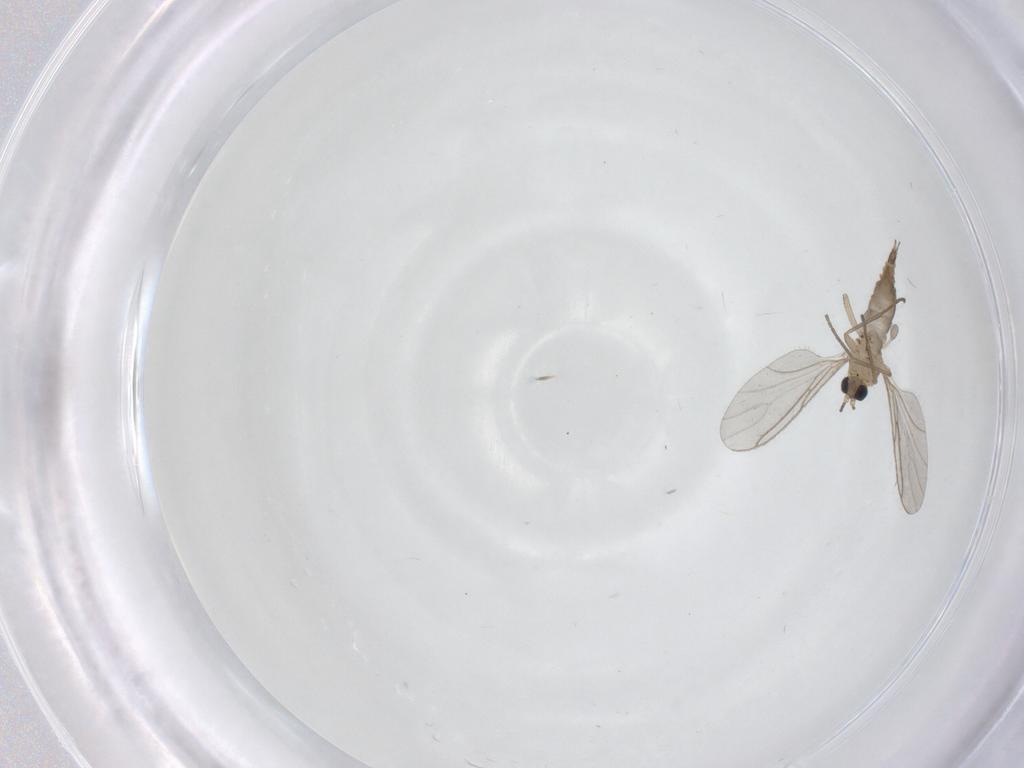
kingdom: Animalia
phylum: Arthropoda
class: Insecta
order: Diptera
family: Sciaridae
